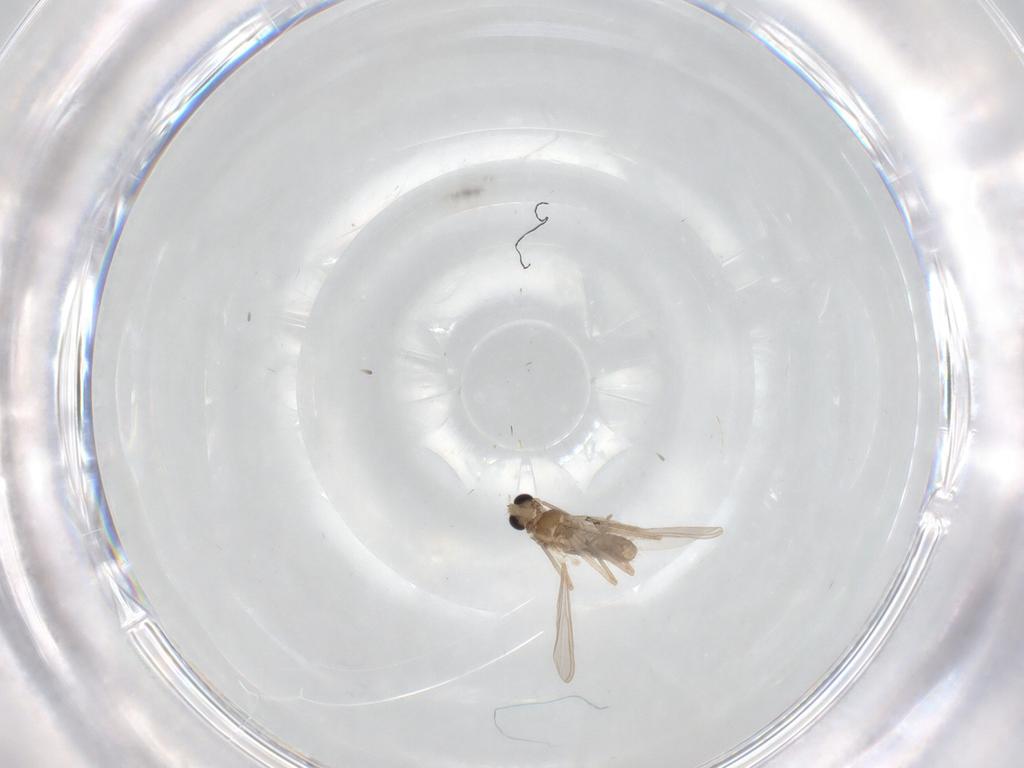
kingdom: Animalia
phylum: Arthropoda
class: Insecta
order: Diptera
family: Chironomidae
